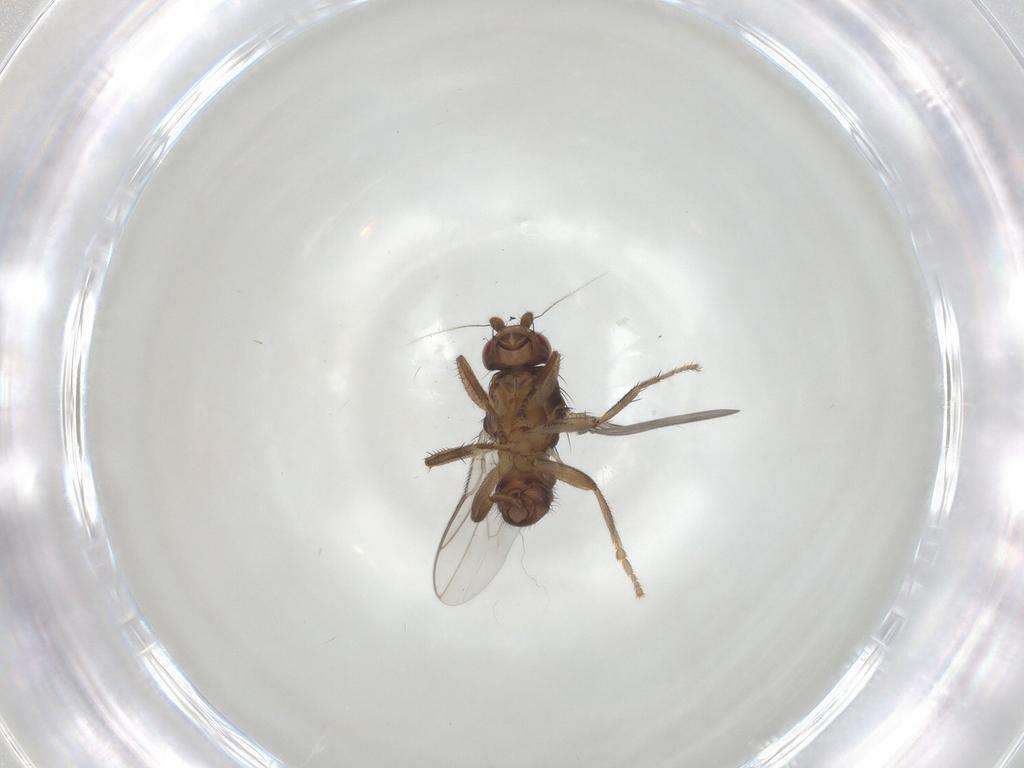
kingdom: Animalia
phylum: Arthropoda
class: Insecta
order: Diptera
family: Sphaeroceridae
